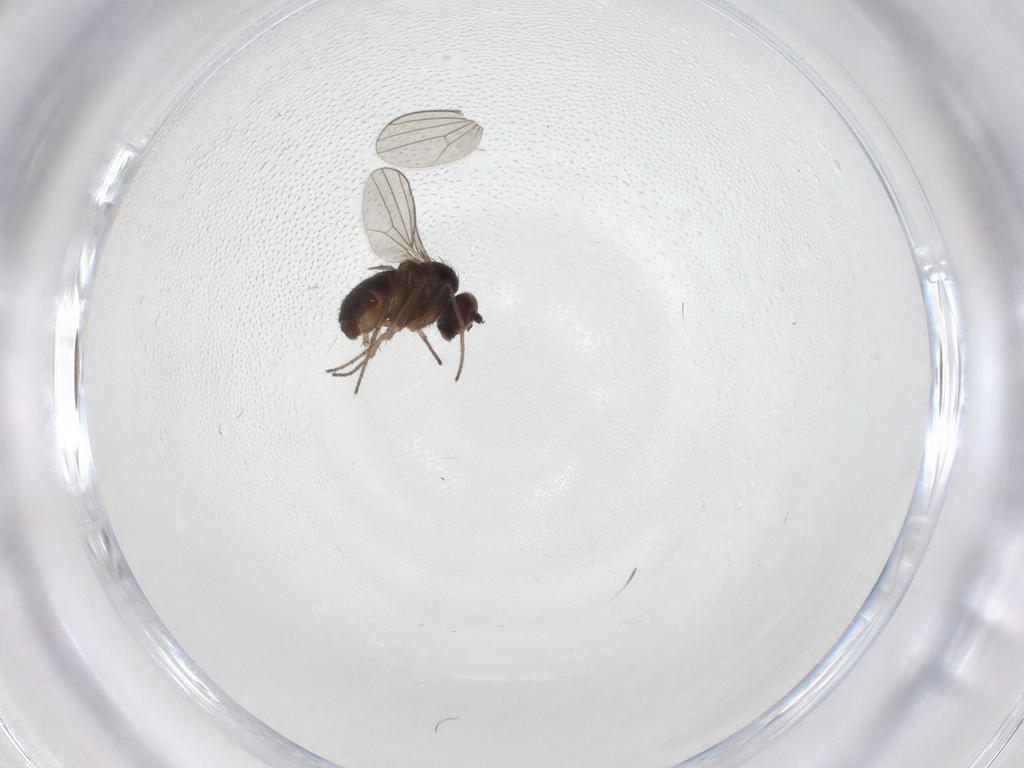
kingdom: Animalia
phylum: Arthropoda
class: Insecta
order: Diptera
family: Dolichopodidae
